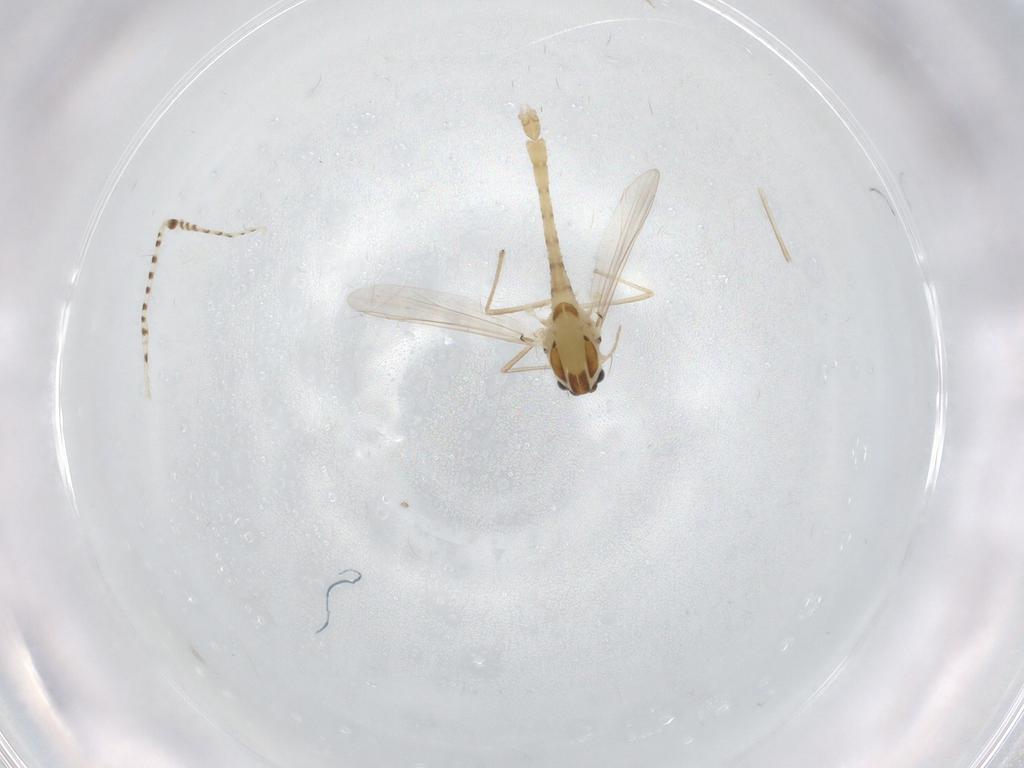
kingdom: Animalia
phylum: Arthropoda
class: Insecta
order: Diptera
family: Chironomidae
